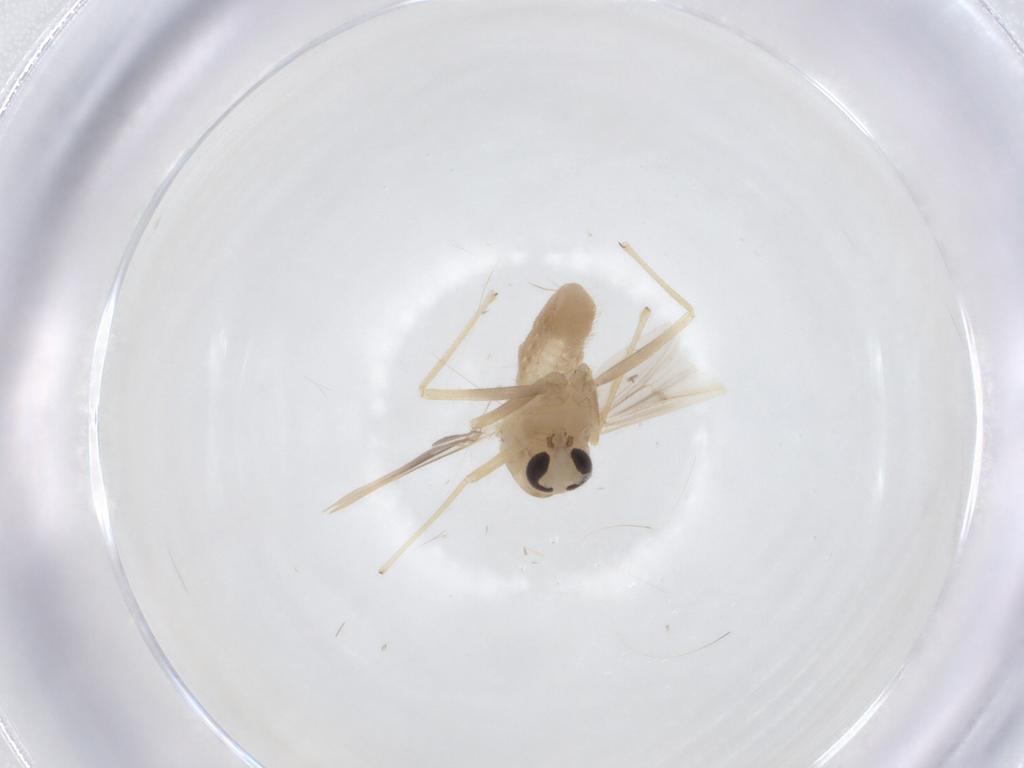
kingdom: Animalia
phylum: Arthropoda
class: Insecta
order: Diptera
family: Chironomidae
